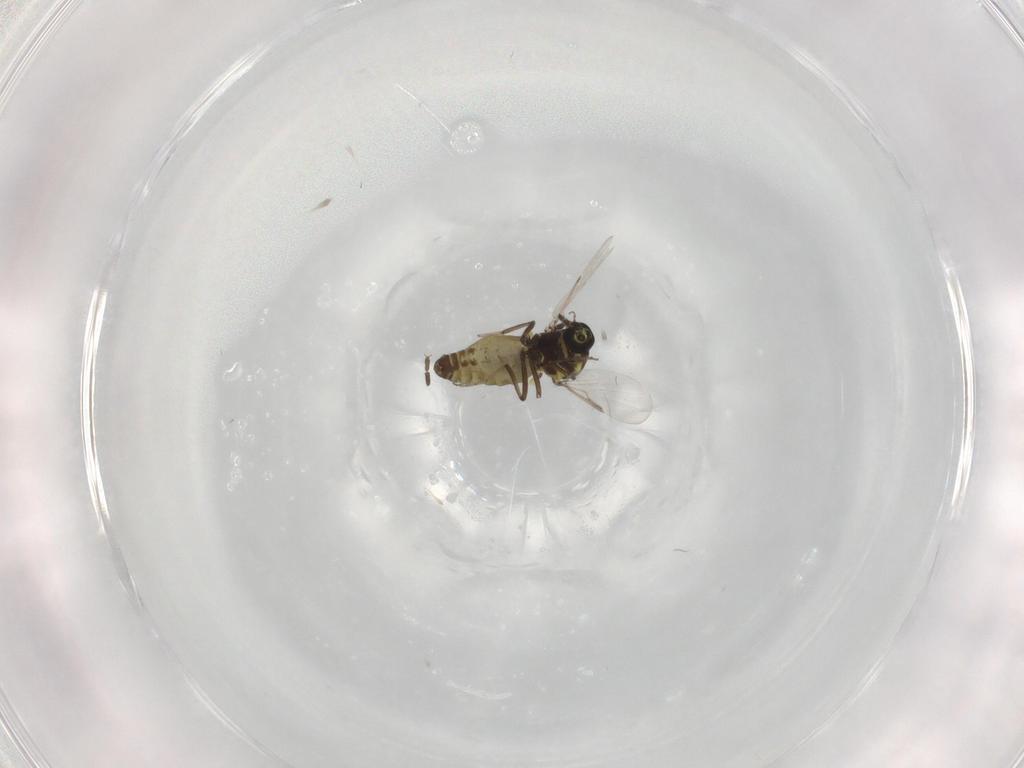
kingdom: Animalia
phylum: Arthropoda
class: Insecta
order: Diptera
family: Ceratopogonidae
